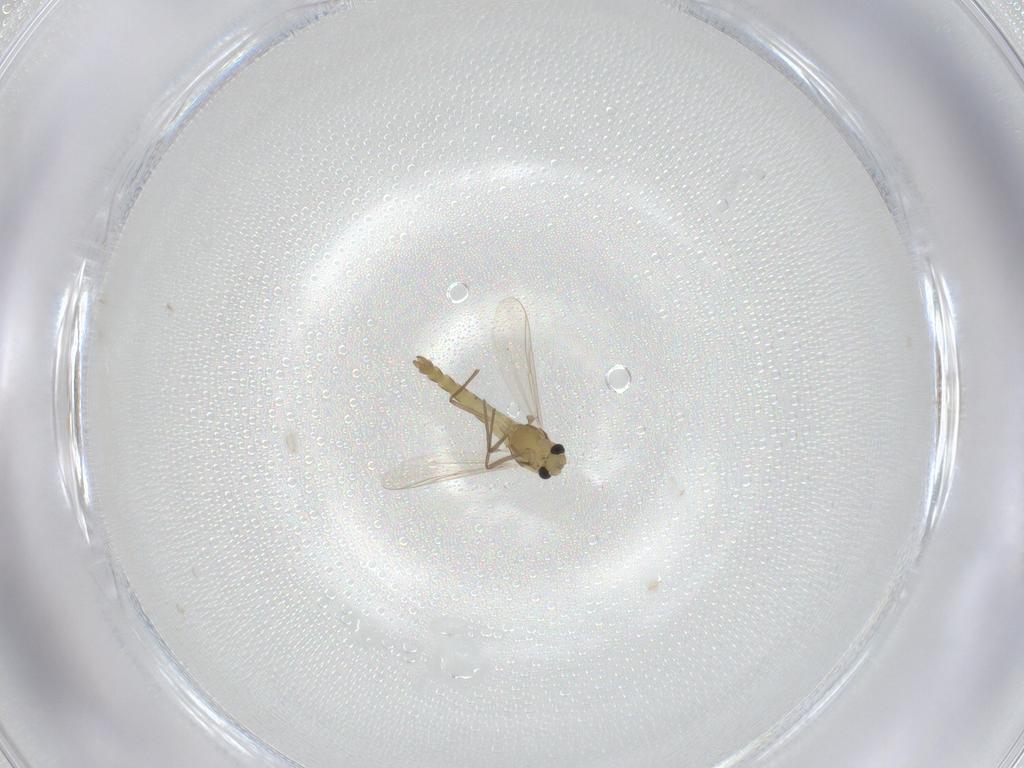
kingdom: Animalia
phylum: Arthropoda
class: Insecta
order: Diptera
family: Chironomidae
